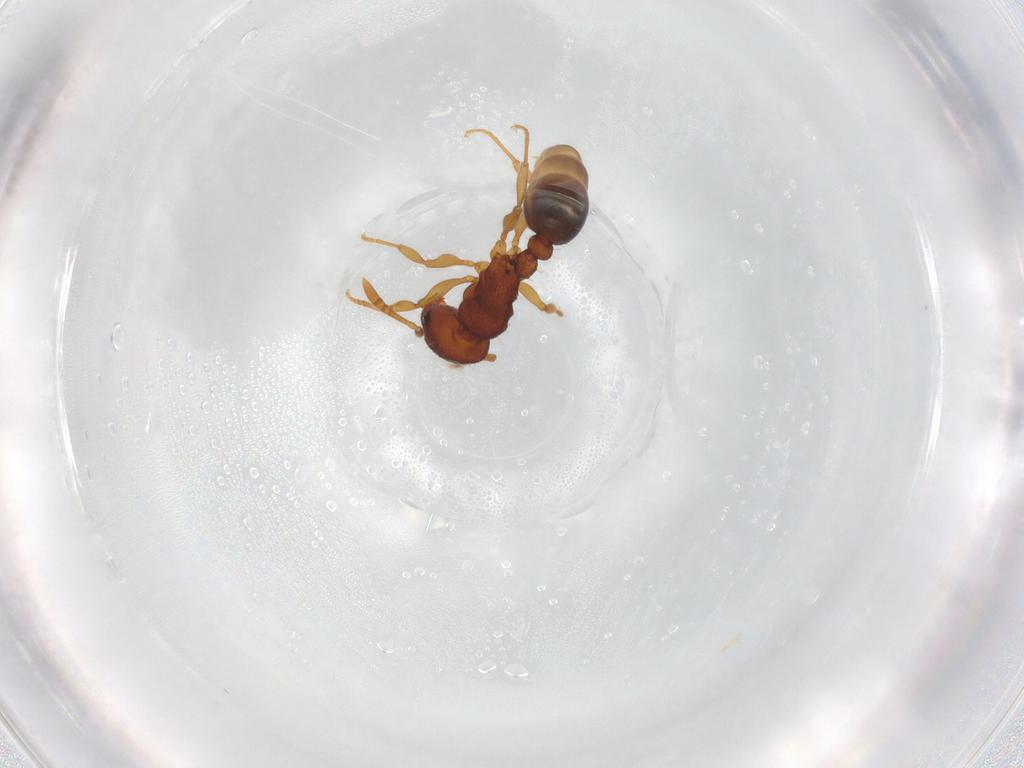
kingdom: Animalia
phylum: Arthropoda
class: Insecta
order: Hymenoptera
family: Formicidae
